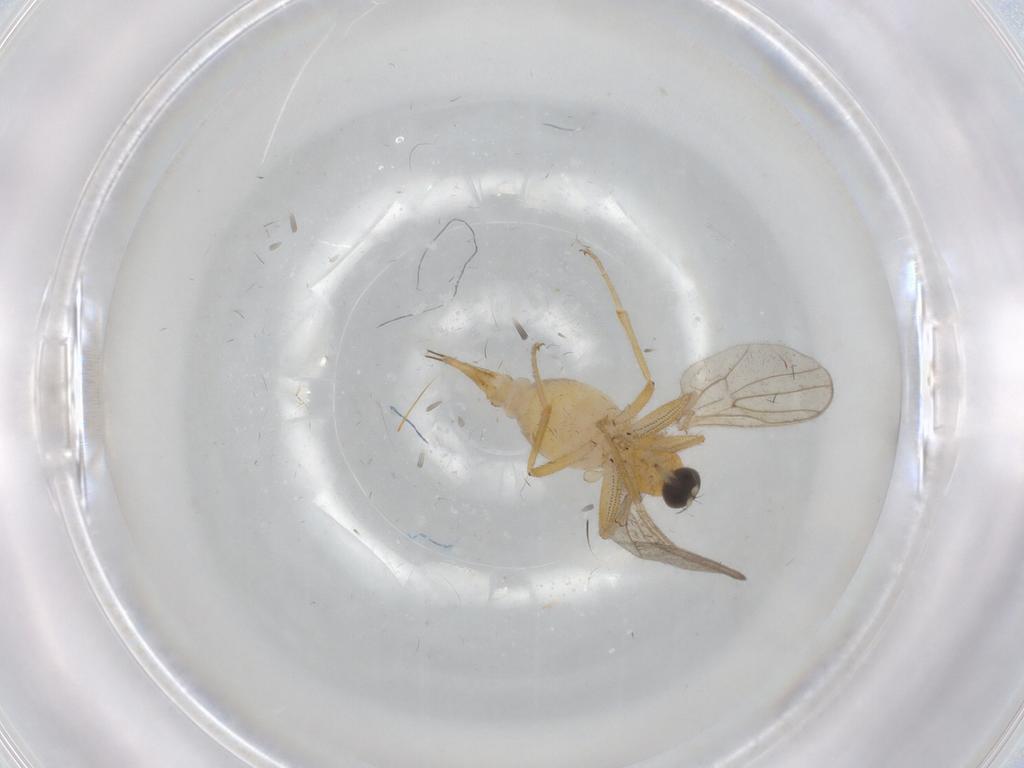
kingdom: Animalia
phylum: Arthropoda
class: Insecta
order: Diptera
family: Hybotidae
